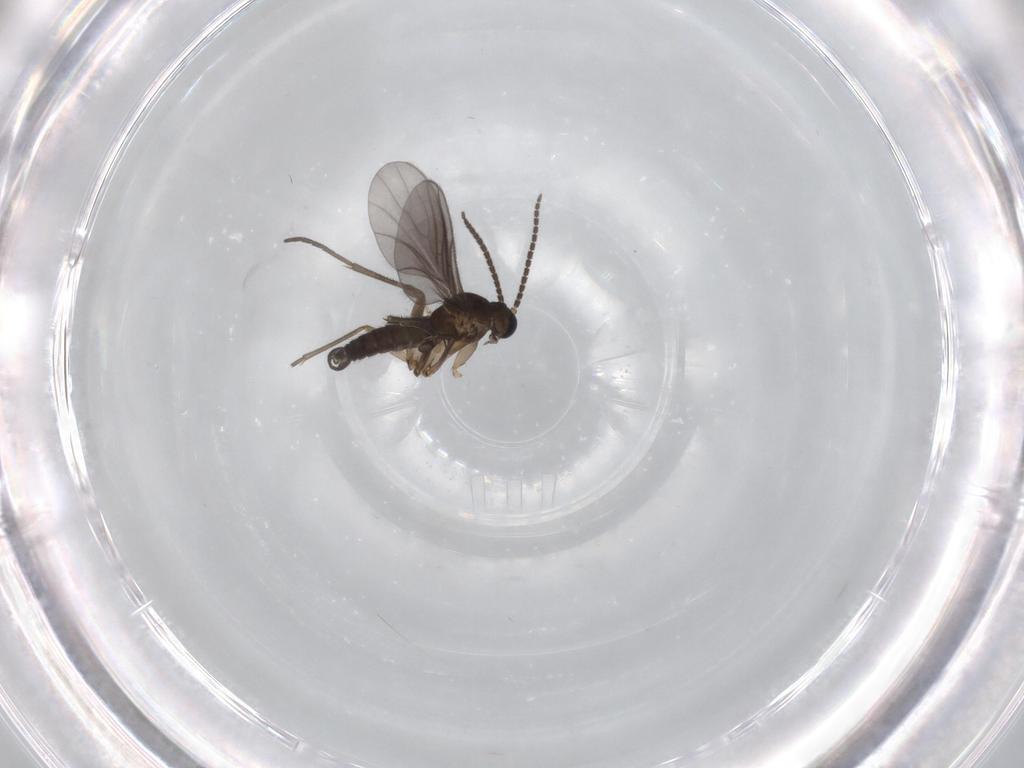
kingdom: Animalia
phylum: Arthropoda
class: Insecta
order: Diptera
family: Sciaridae
